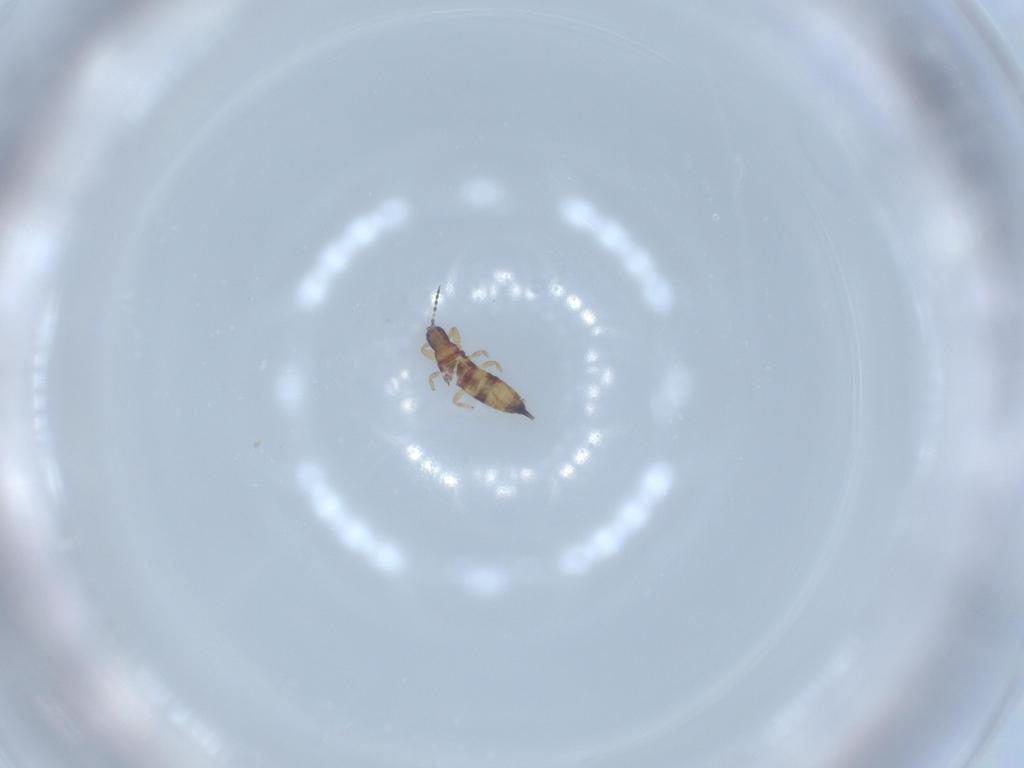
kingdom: Animalia
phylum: Arthropoda
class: Insecta
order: Thysanoptera
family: Phlaeothripidae
